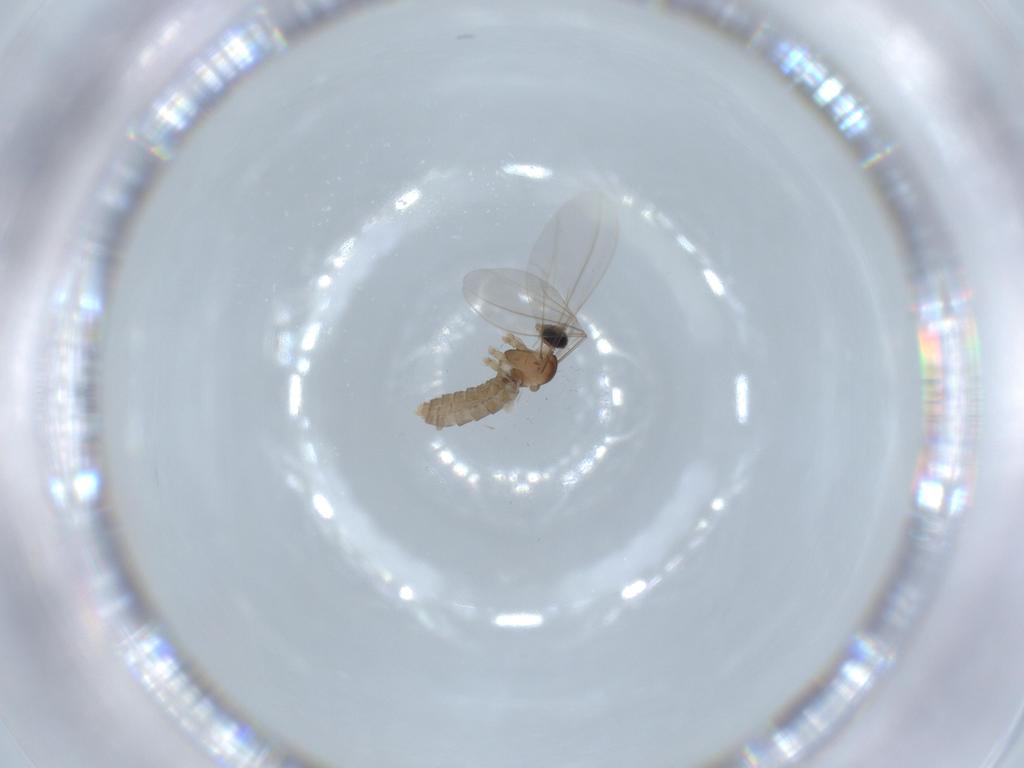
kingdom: Animalia
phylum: Arthropoda
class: Insecta
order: Diptera
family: Cecidomyiidae
